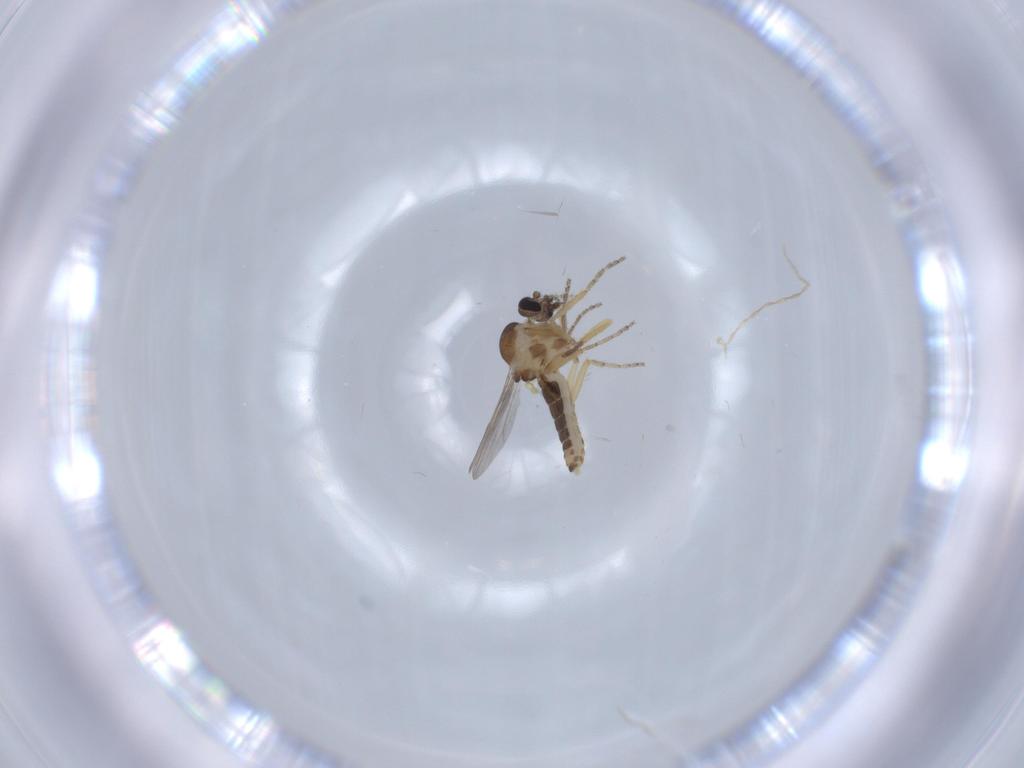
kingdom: Animalia
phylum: Arthropoda
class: Insecta
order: Diptera
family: Ceratopogonidae
